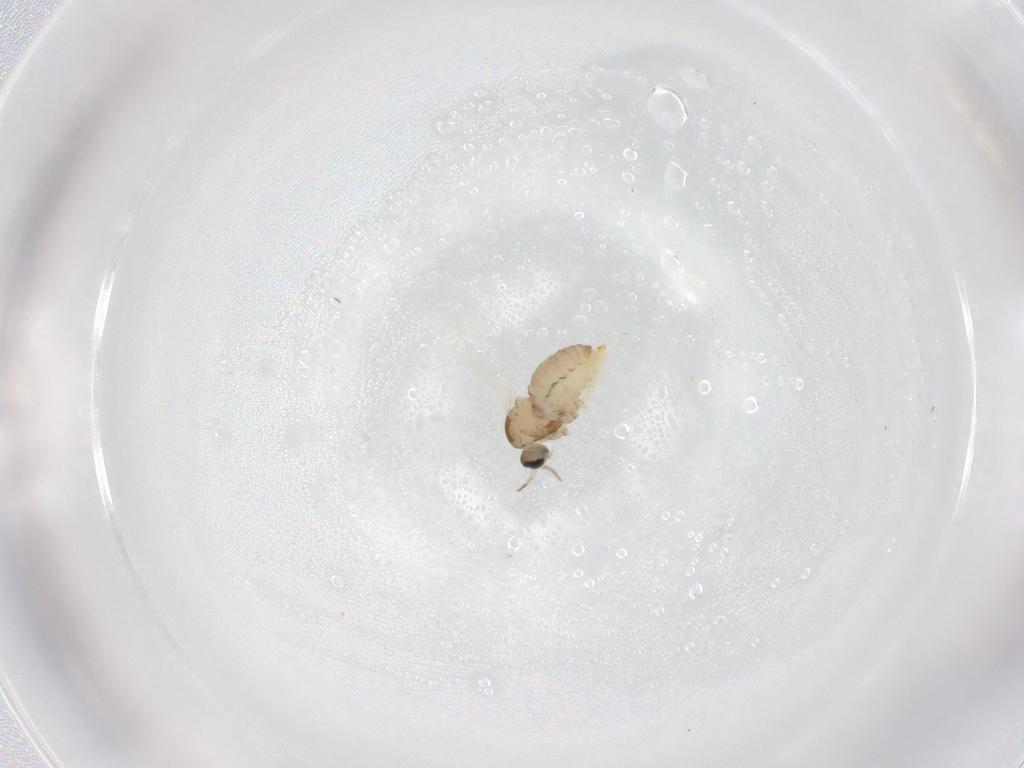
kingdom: Animalia
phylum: Arthropoda
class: Insecta
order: Diptera
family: Cecidomyiidae
